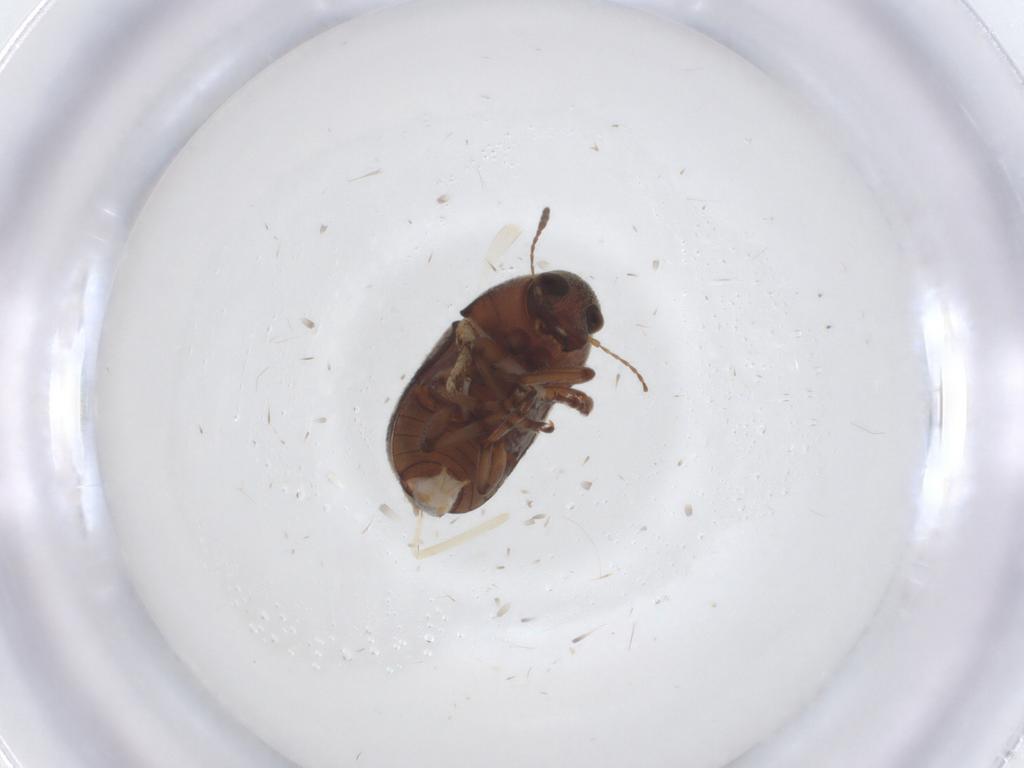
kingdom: Animalia
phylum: Arthropoda
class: Insecta
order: Coleoptera
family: Anthribidae
